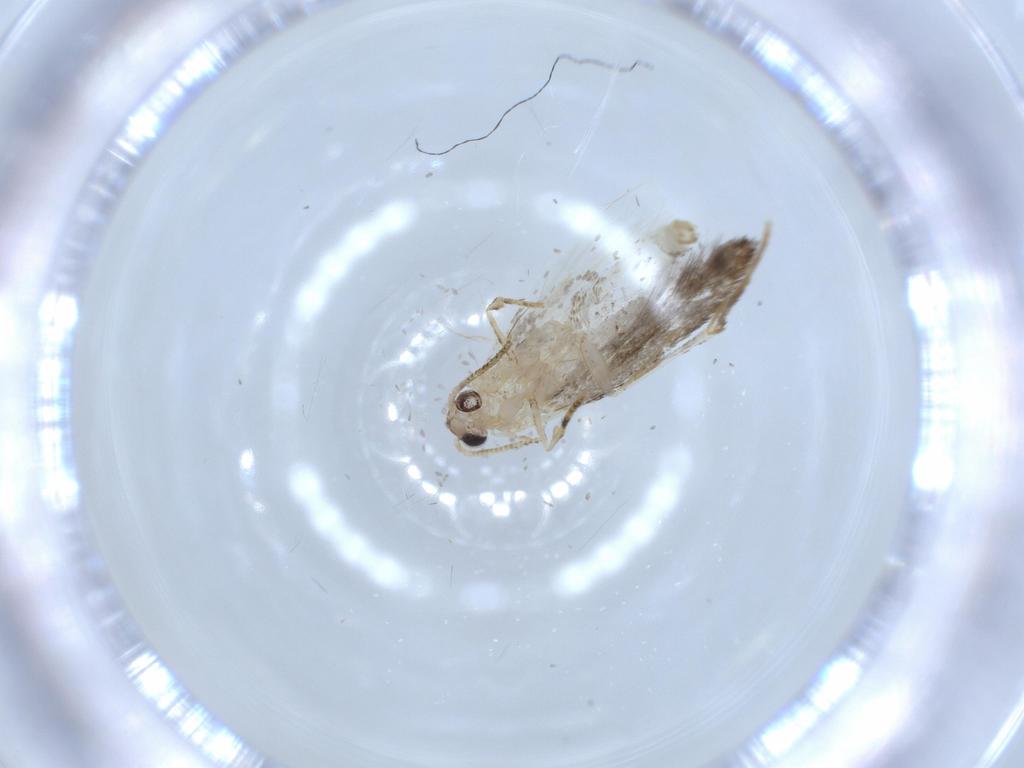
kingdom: Animalia
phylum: Arthropoda
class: Insecta
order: Lepidoptera
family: Tineidae
